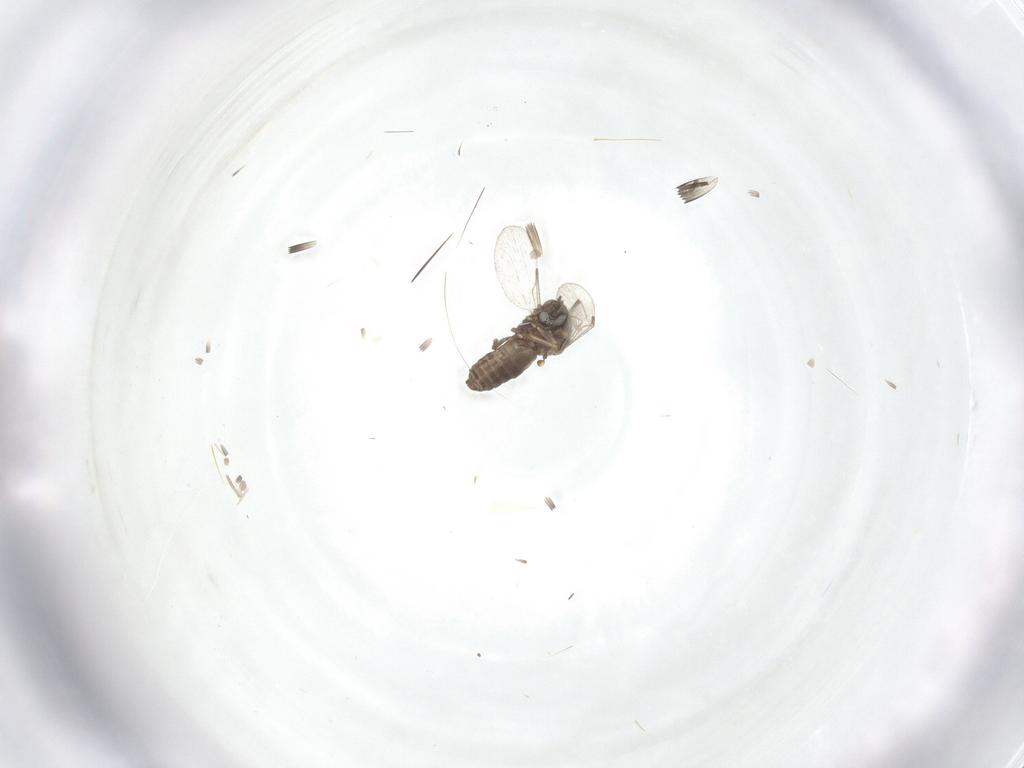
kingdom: Animalia
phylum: Arthropoda
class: Insecta
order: Diptera
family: Ceratopogonidae
